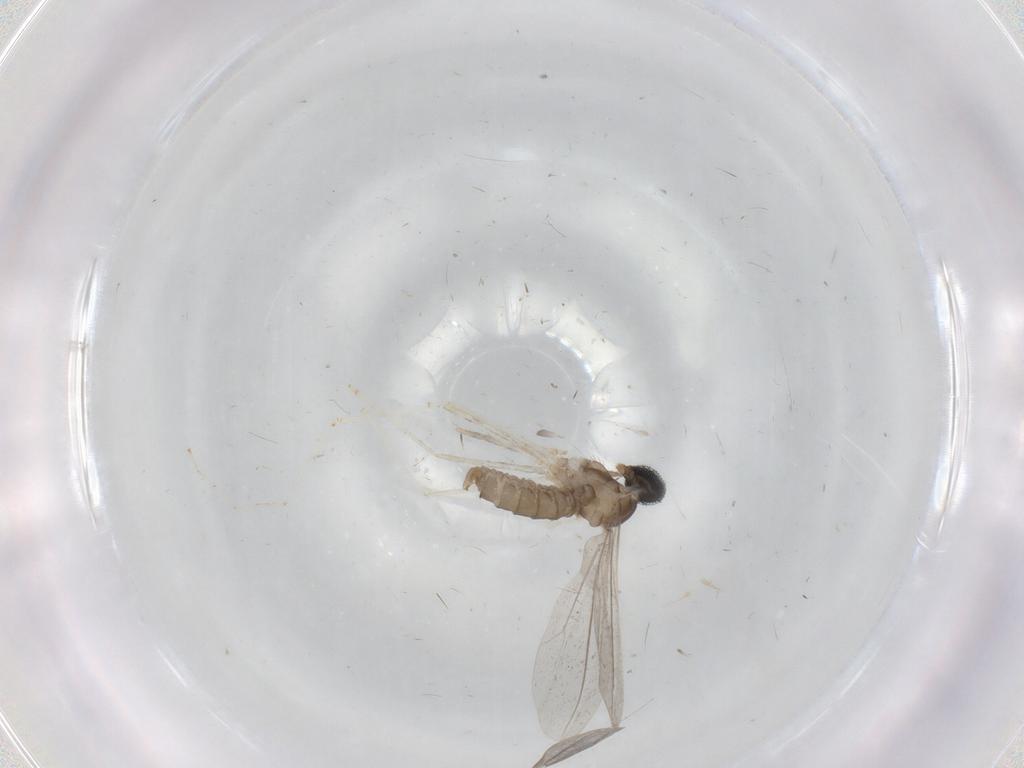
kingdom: Animalia
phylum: Arthropoda
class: Insecta
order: Diptera
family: Cecidomyiidae
